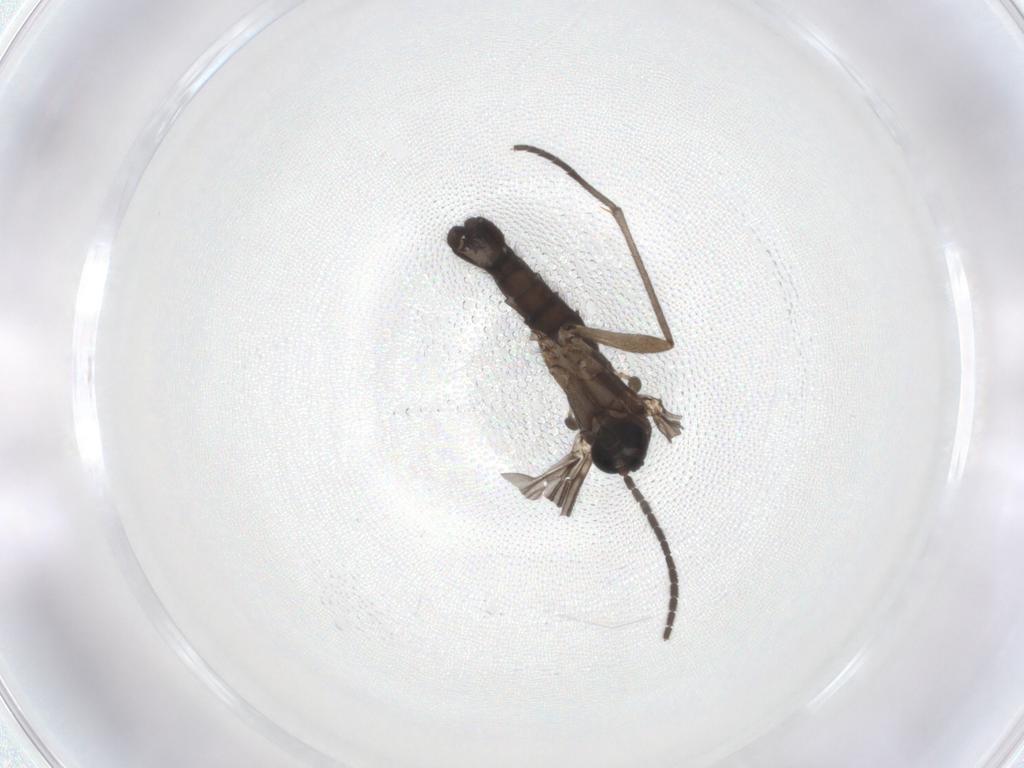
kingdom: Animalia
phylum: Arthropoda
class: Insecta
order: Diptera
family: Sciaridae
